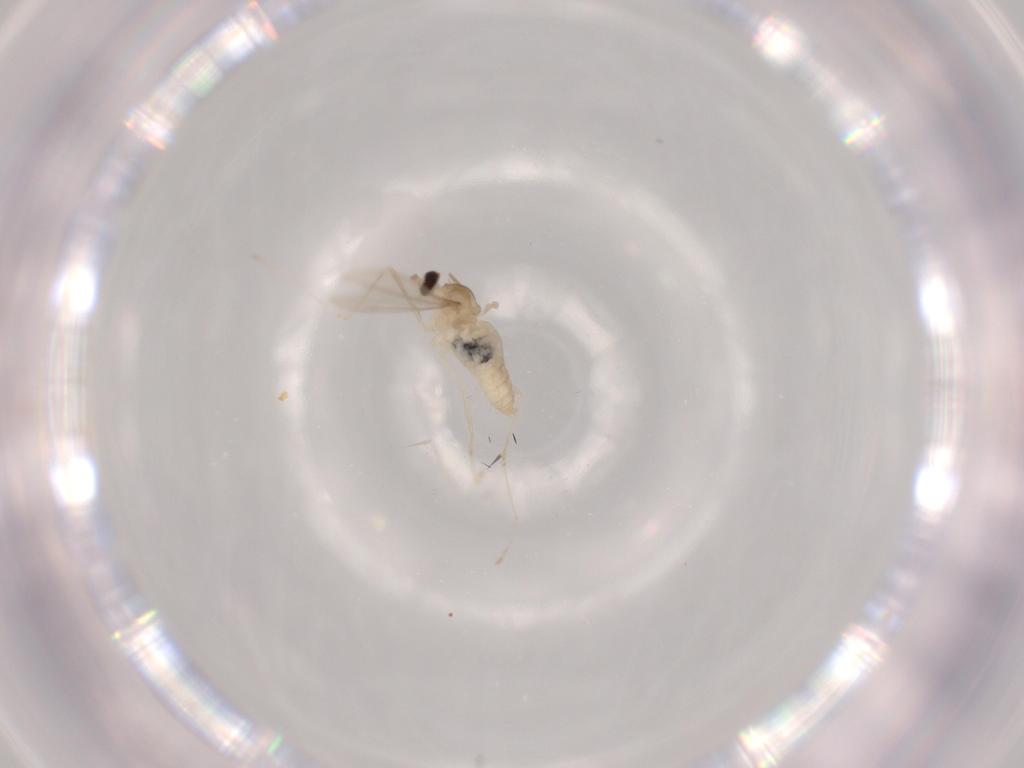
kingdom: Animalia
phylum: Arthropoda
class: Insecta
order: Diptera
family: Cecidomyiidae
